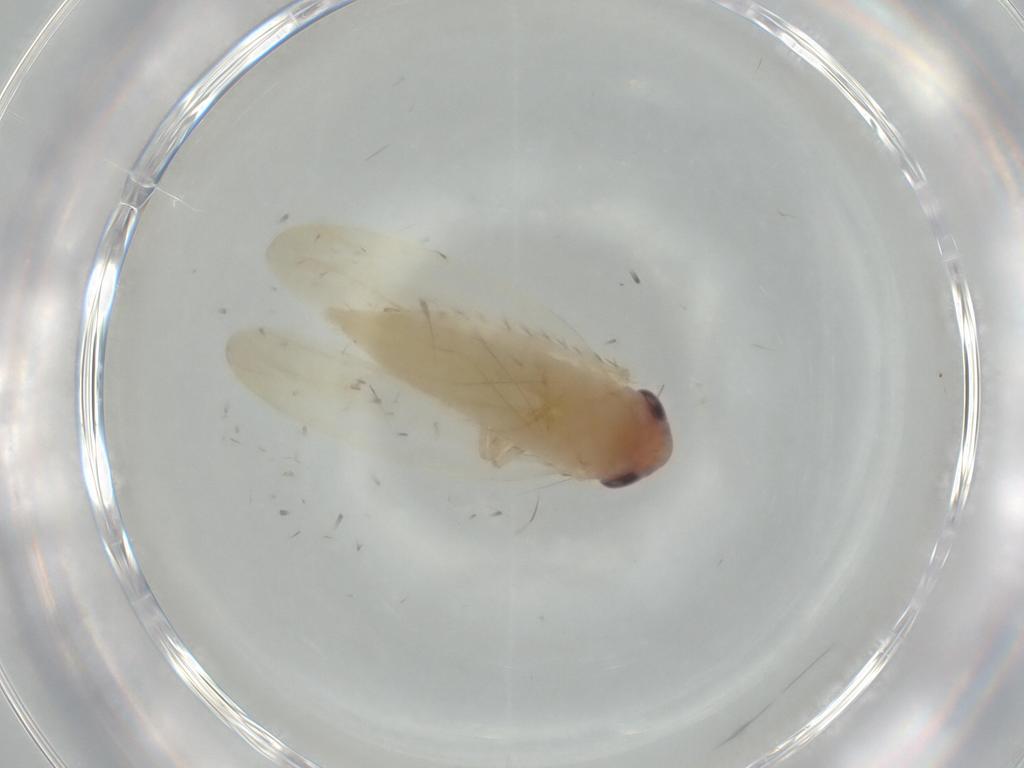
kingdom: Animalia
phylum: Arthropoda
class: Insecta
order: Hemiptera
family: Cicadellidae
